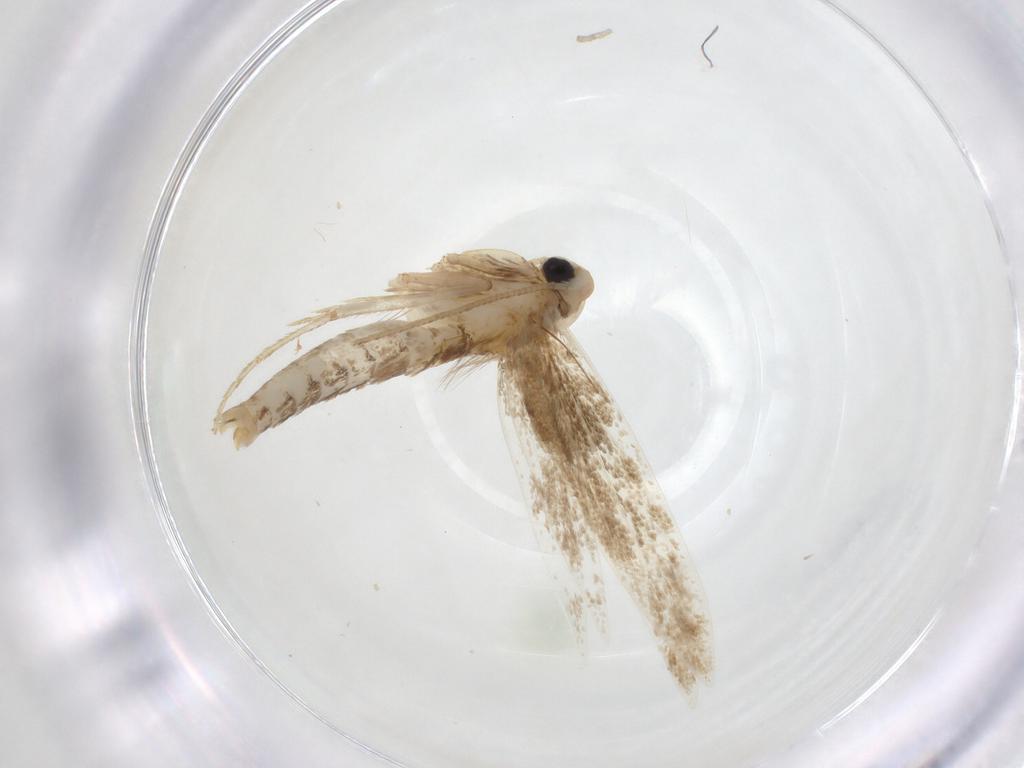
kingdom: Animalia
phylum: Arthropoda
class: Insecta
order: Lepidoptera
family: Tineidae
